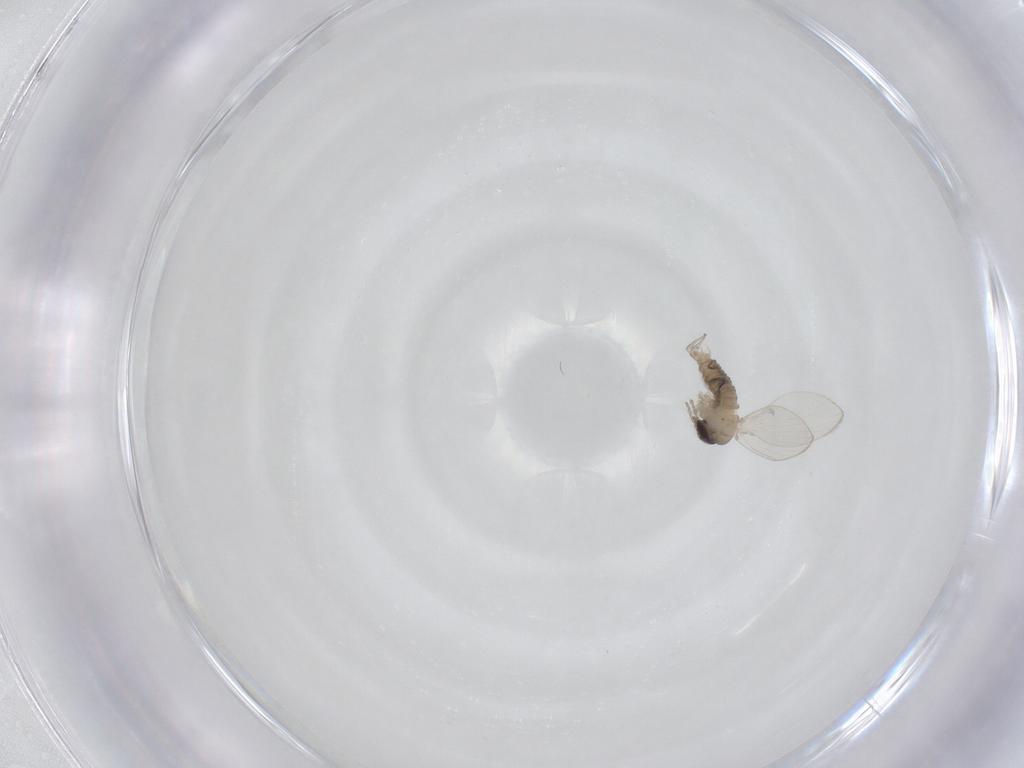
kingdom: Animalia
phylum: Arthropoda
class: Insecta
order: Diptera
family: Psychodidae
